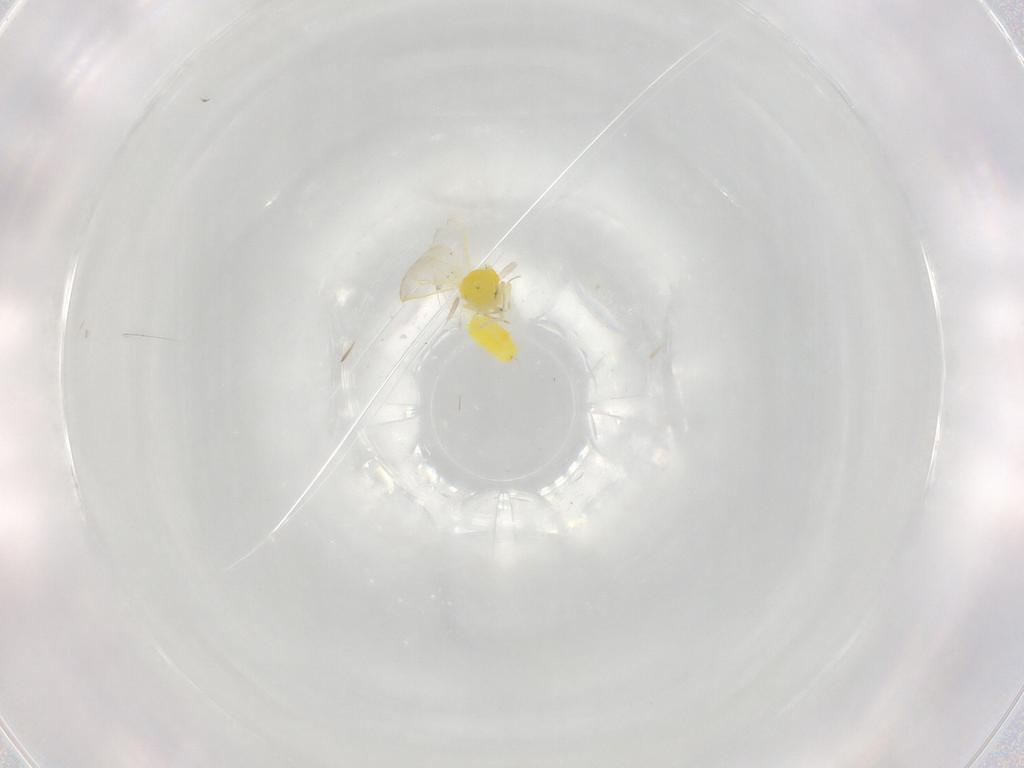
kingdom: Animalia
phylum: Arthropoda
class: Insecta
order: Hemiptera
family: Aleyrodidae
